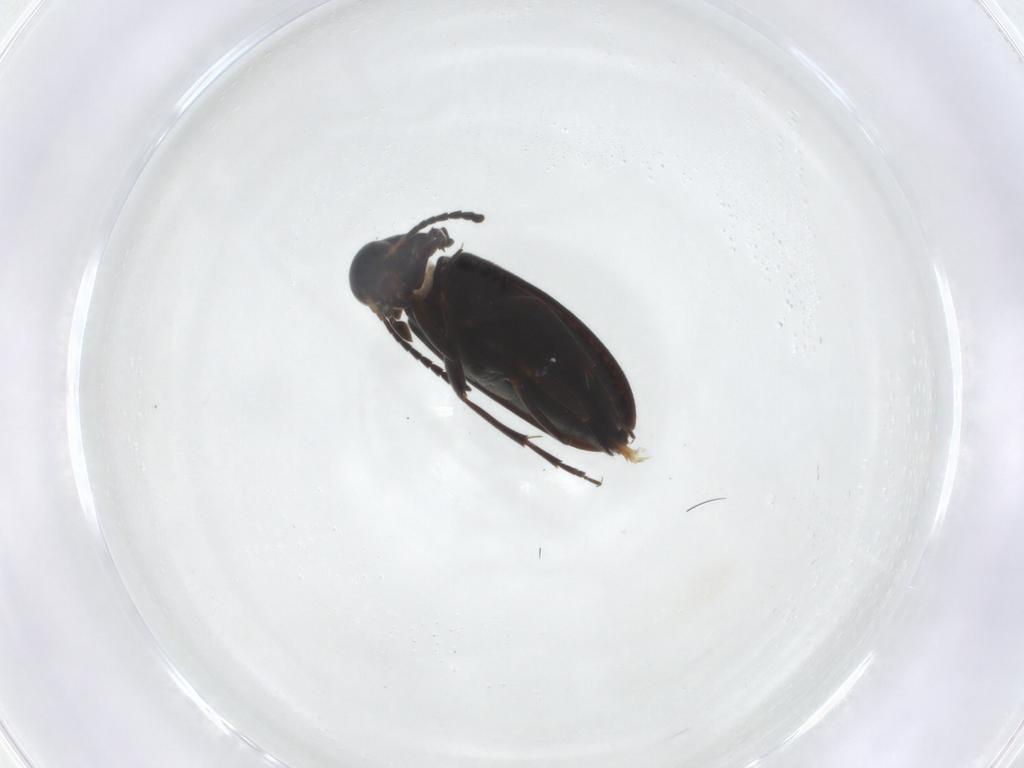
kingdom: Animalia
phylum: Arthropoda
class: Insecta
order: Coleoptera
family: Scraptiidae
